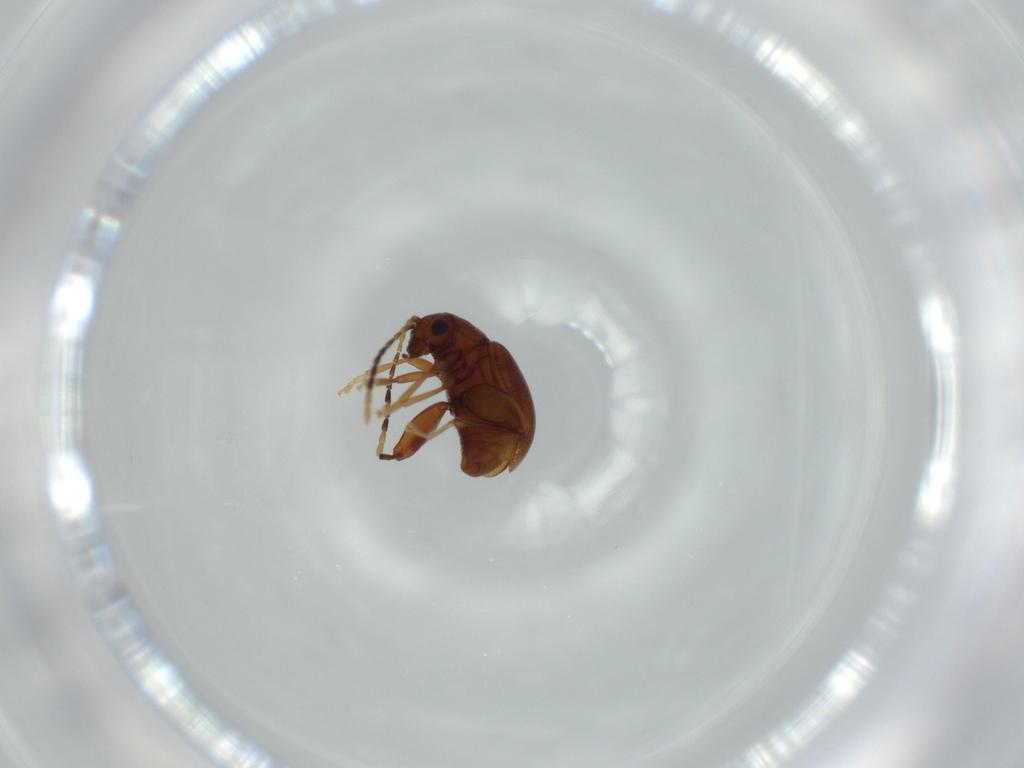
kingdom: Animalia
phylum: Arthropoda
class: Insecta
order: Coleoptera
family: Chrysomelidae
